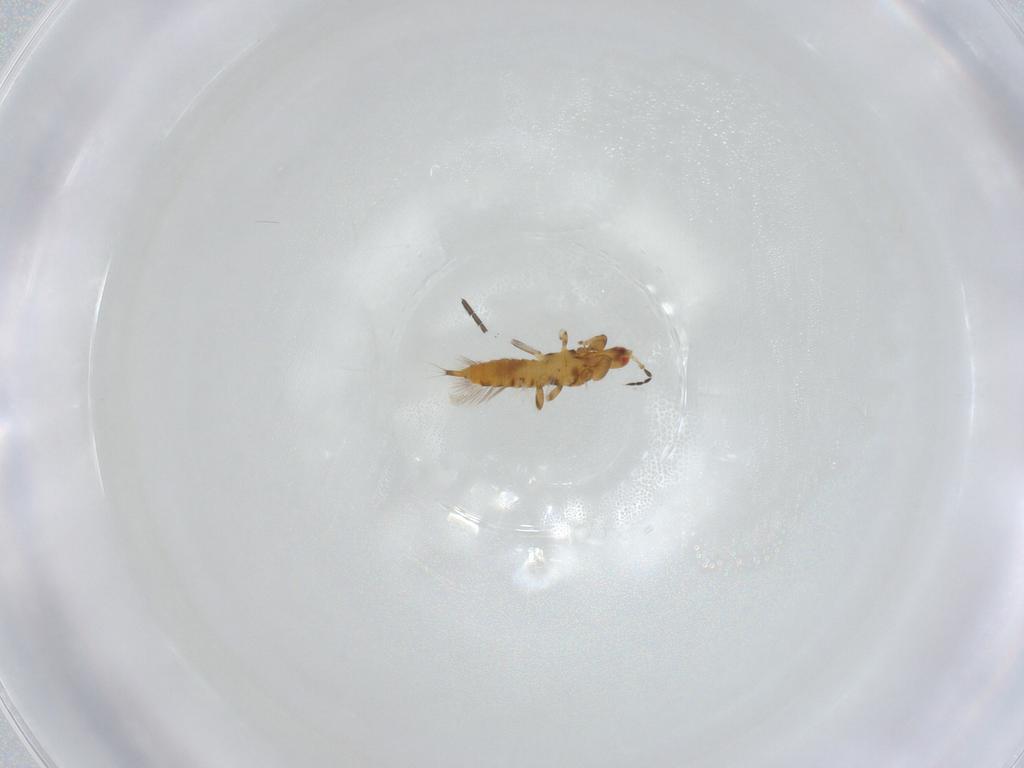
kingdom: Animalia
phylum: Arthropoda
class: Insecta
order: Thysanoptera
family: Phlaeothripidae
